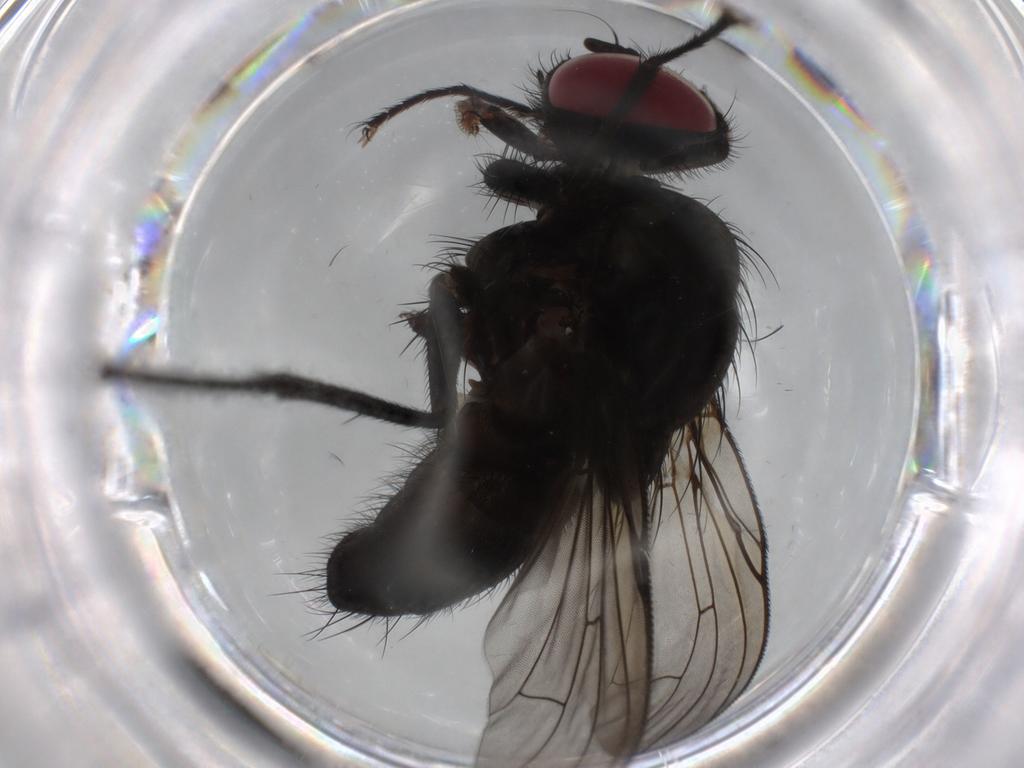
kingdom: Animalia
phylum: Arthropoda
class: Insecta
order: Diptera
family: Muscidae
